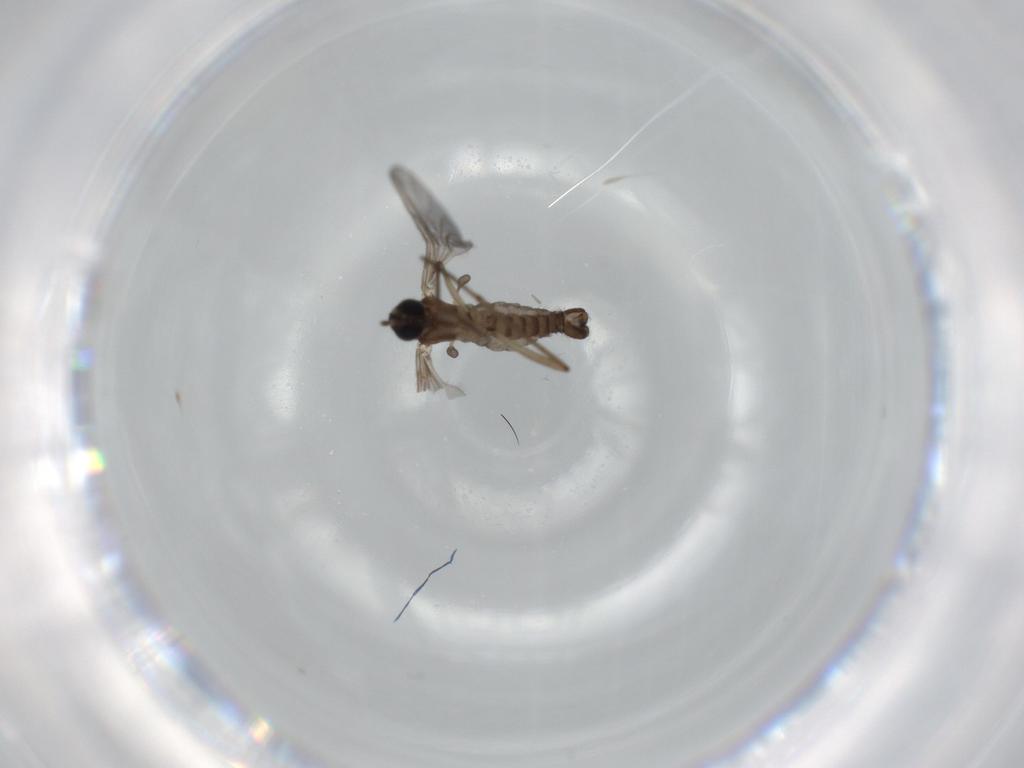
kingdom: Animalia
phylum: Arthropoda
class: Insecta
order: Diptera
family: Sciaridae
